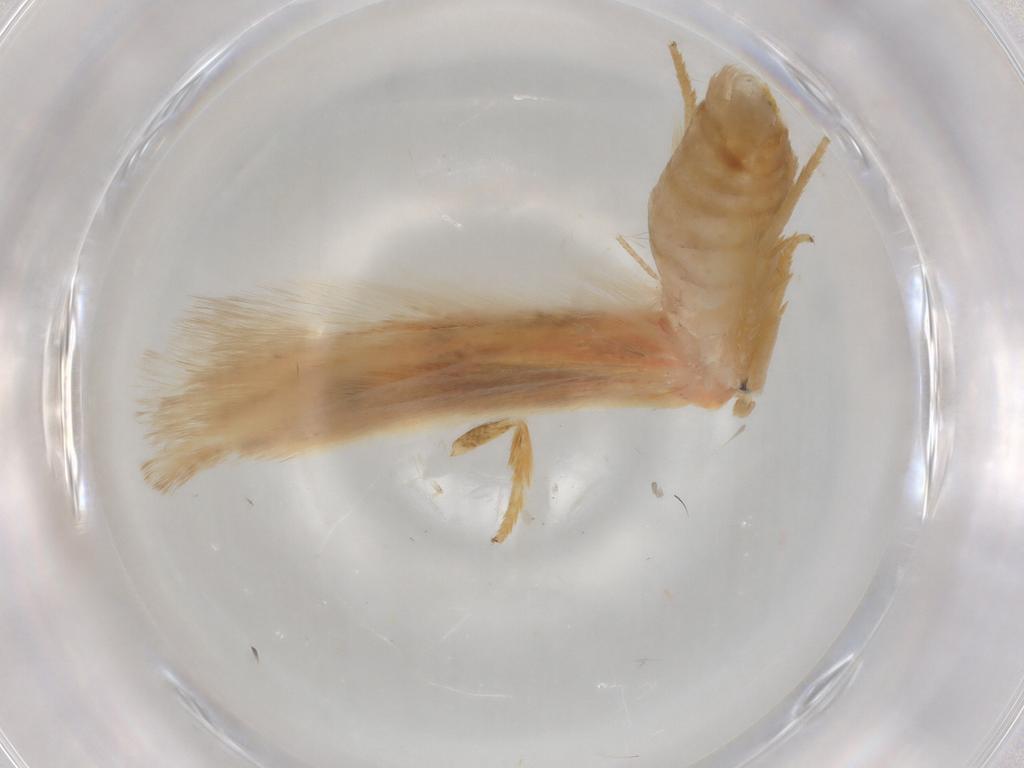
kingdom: Animalia
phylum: Arthropoda
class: Insecta
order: Lepidoptera
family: Geometridae
